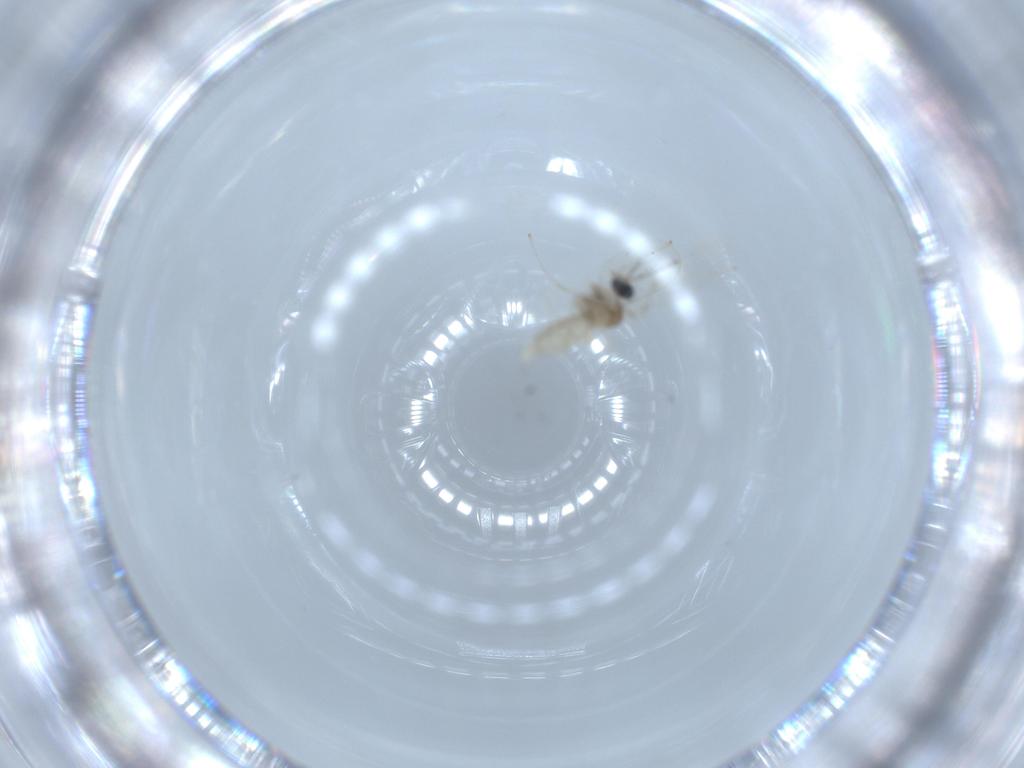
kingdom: Animalia
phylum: Arthropoda
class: Insecta
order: Diptera
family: Cecidomyiidae
